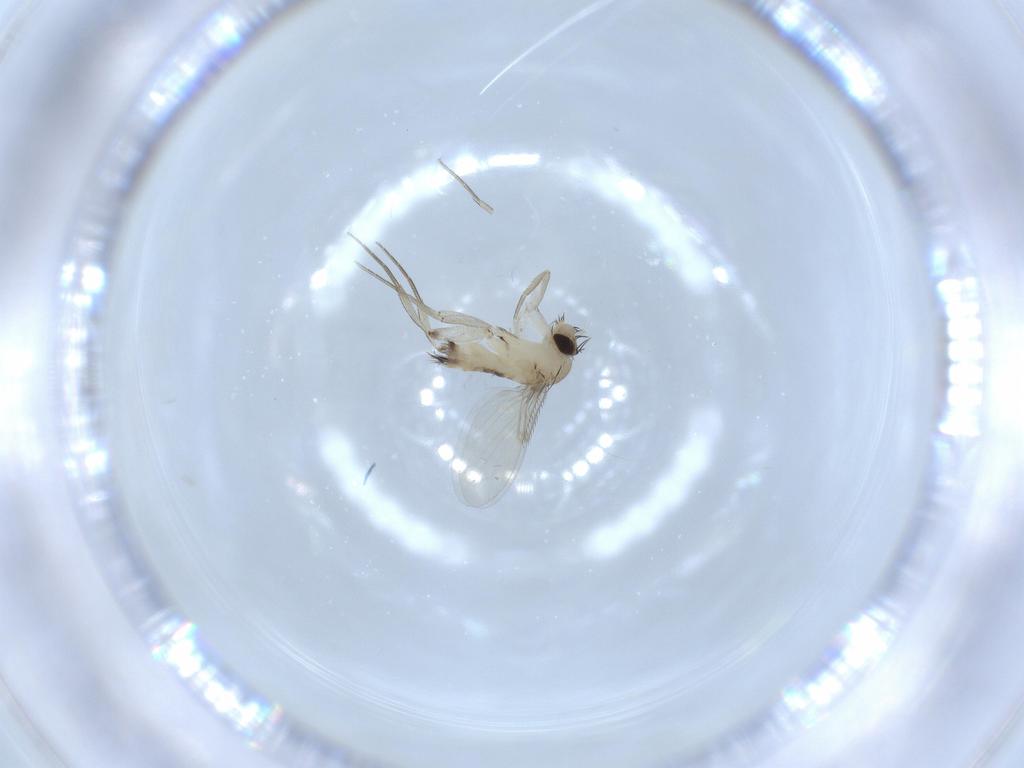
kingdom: Animalia
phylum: Arthropoda
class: Insecta
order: Diptera
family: Phoridae
